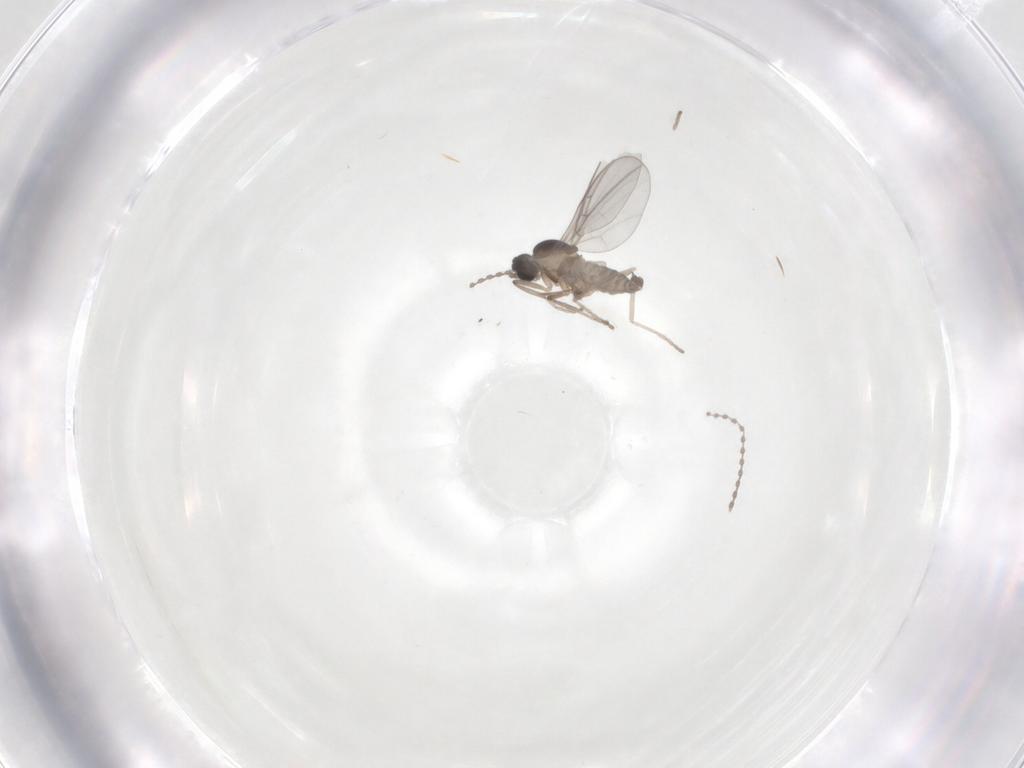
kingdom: Animalia
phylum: Arthropoda
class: Insecta
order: Diptera
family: Cecidomyiidae
